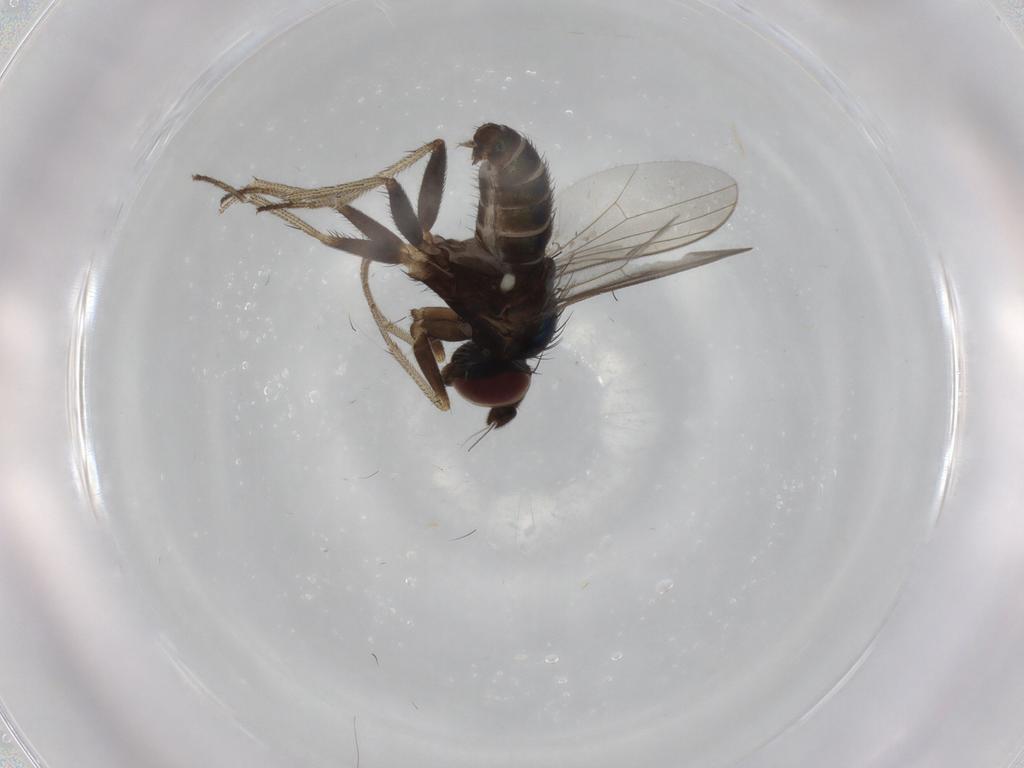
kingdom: Animalia
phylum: Arthropoda
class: Insecta
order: Diptera
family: Dolichopodidae
